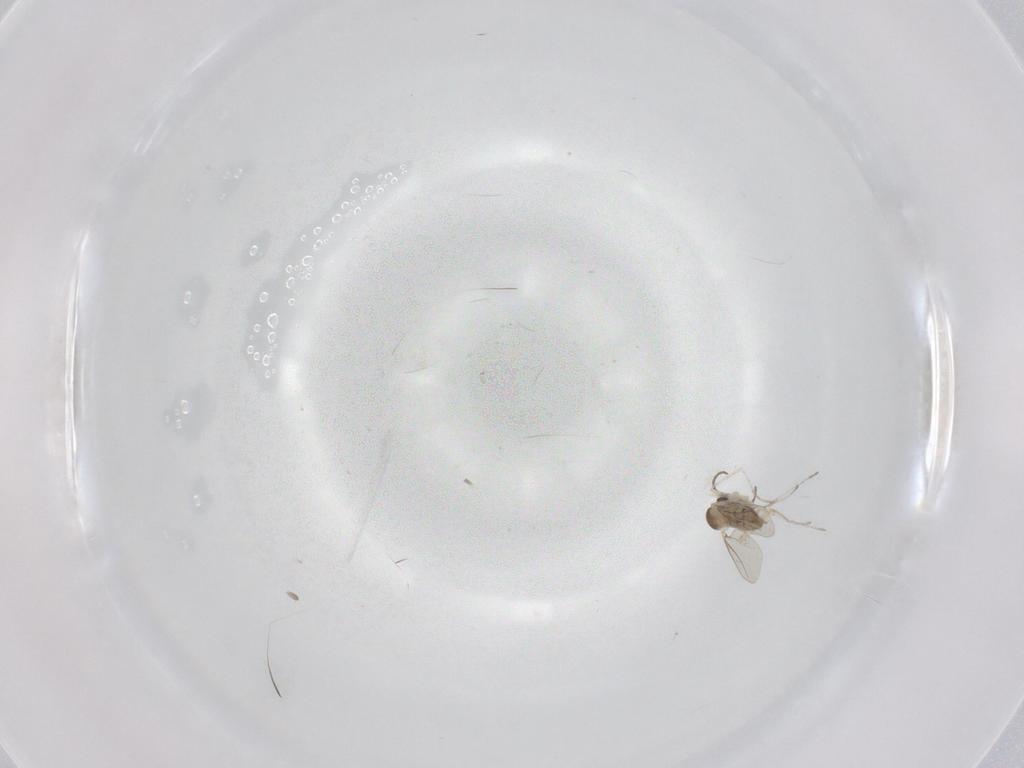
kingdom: Animalia
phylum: Arthropoda
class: Insecta
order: Diptera
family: Cecidomyiidae
